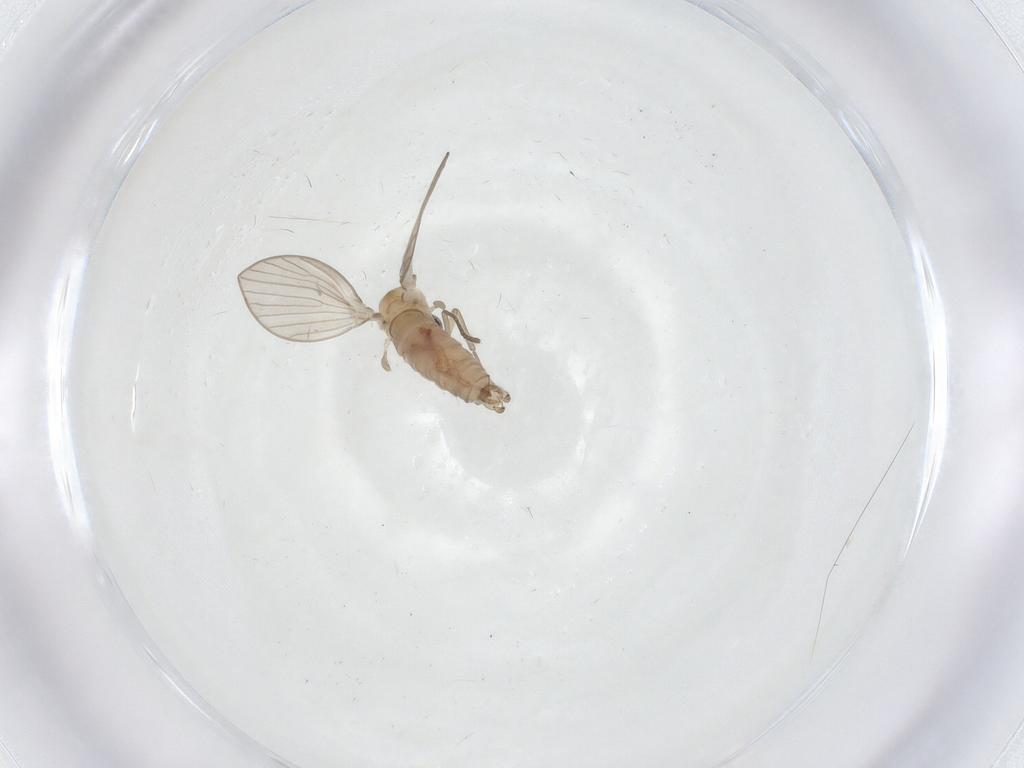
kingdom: Animalia
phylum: Arthropoda
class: Insecta
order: Diptera
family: Psychodidae
